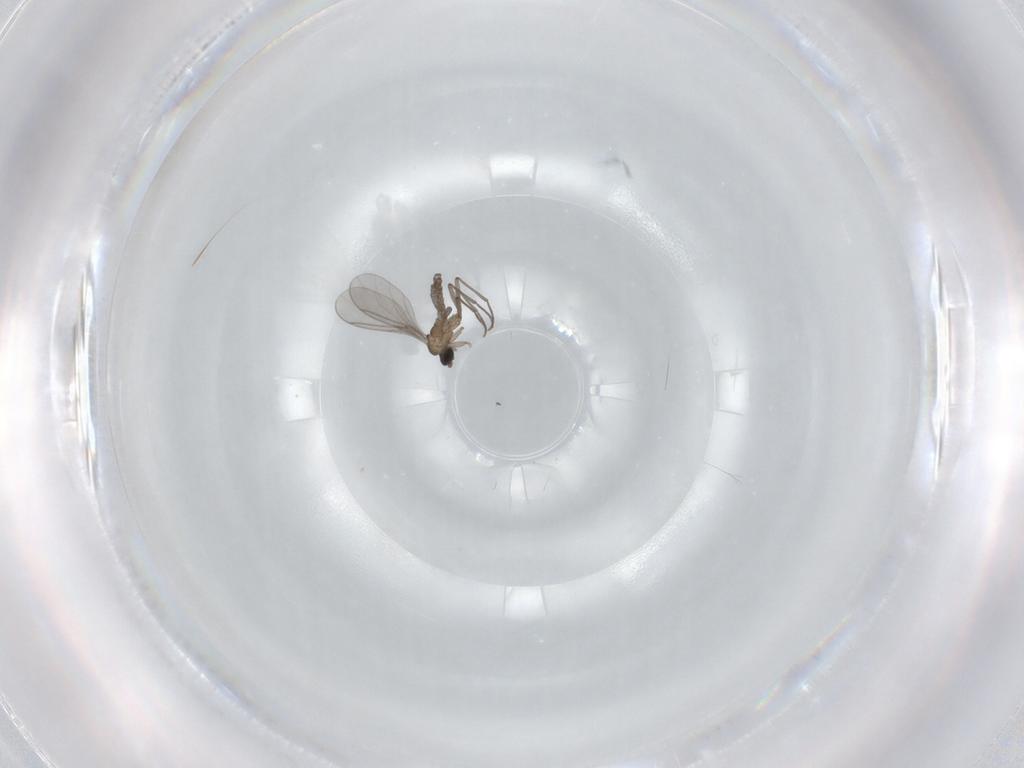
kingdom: Animalia
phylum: Arthropoda
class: Insecta
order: Diptera
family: Sciaridae
